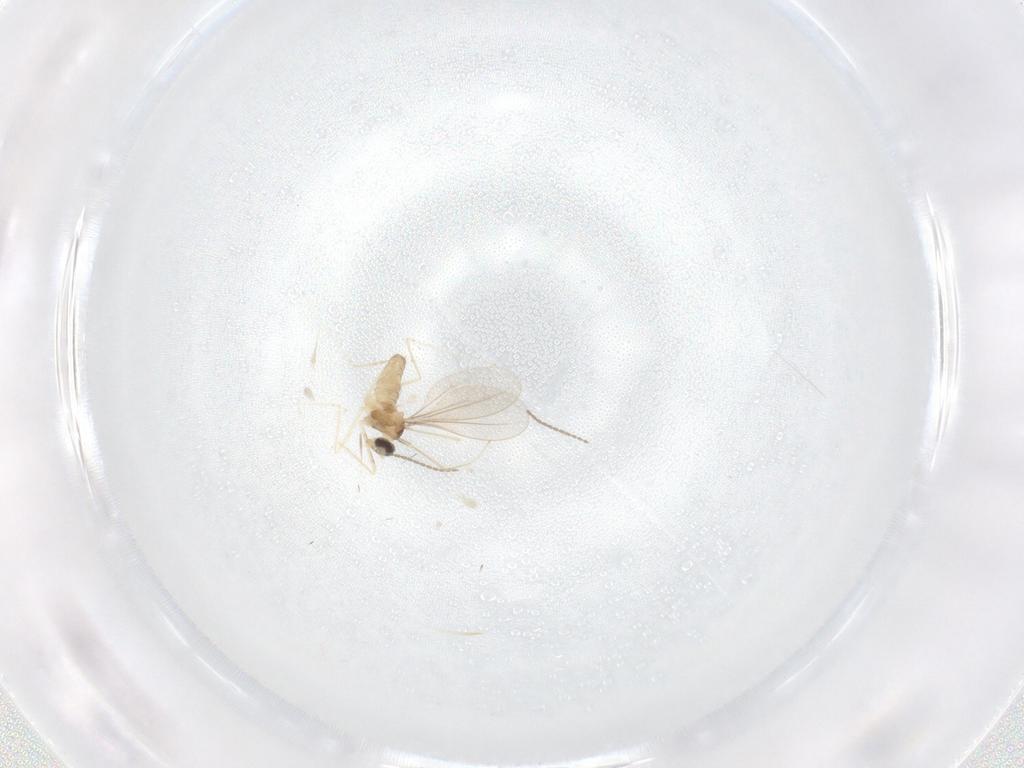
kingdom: Animalia
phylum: Arthropoda
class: Insecta
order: Diptera
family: Cecidomyiidae
